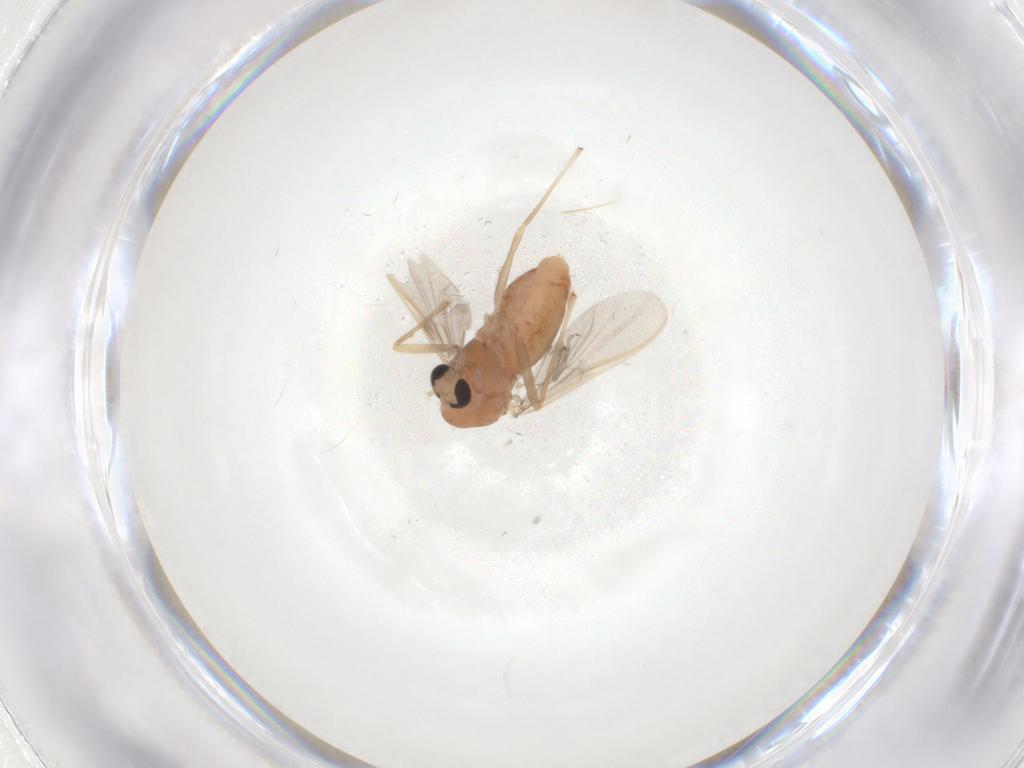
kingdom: Animalia
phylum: Arthropoda
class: Insecta
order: Diptera
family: Chironomidae
